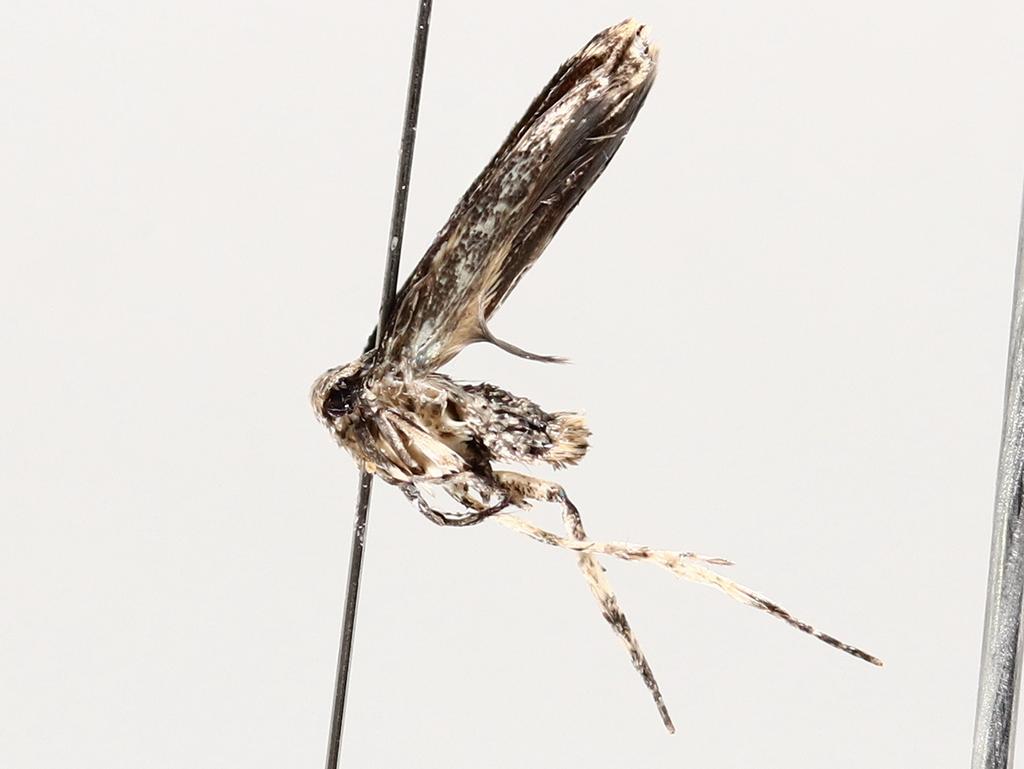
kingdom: Animalia
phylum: Arthropoda
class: Insecta
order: Diptera
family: Chironomidae
